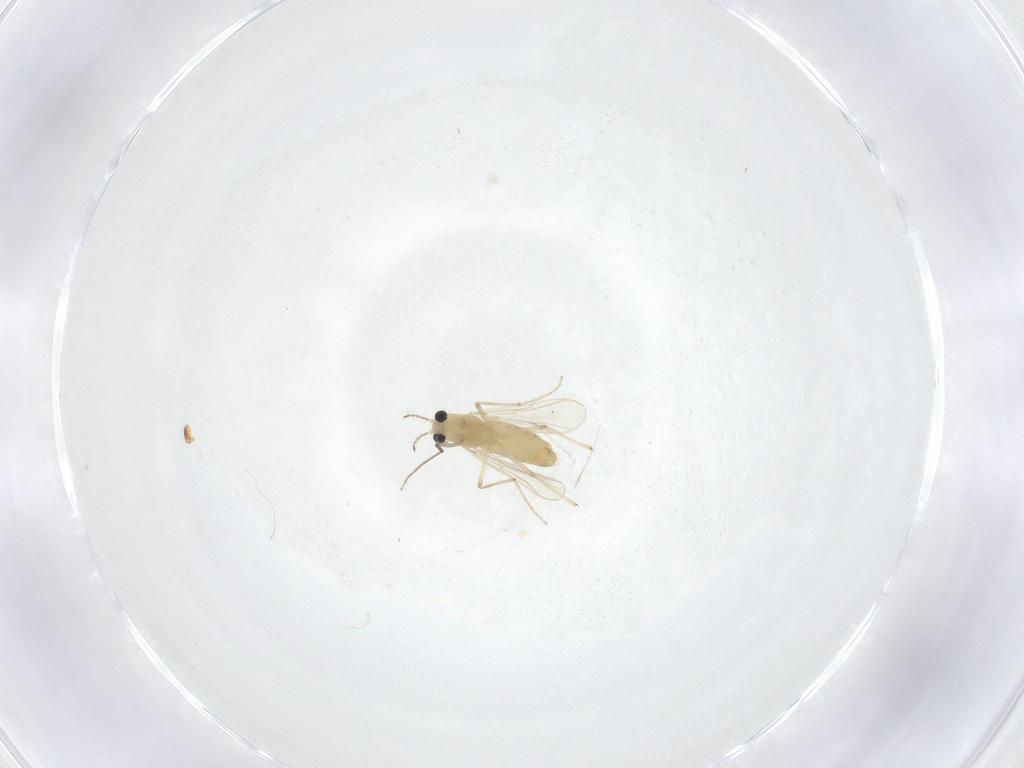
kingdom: Animalia
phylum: Arthropoda
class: Insecta
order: Diptera
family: Chironomidae
